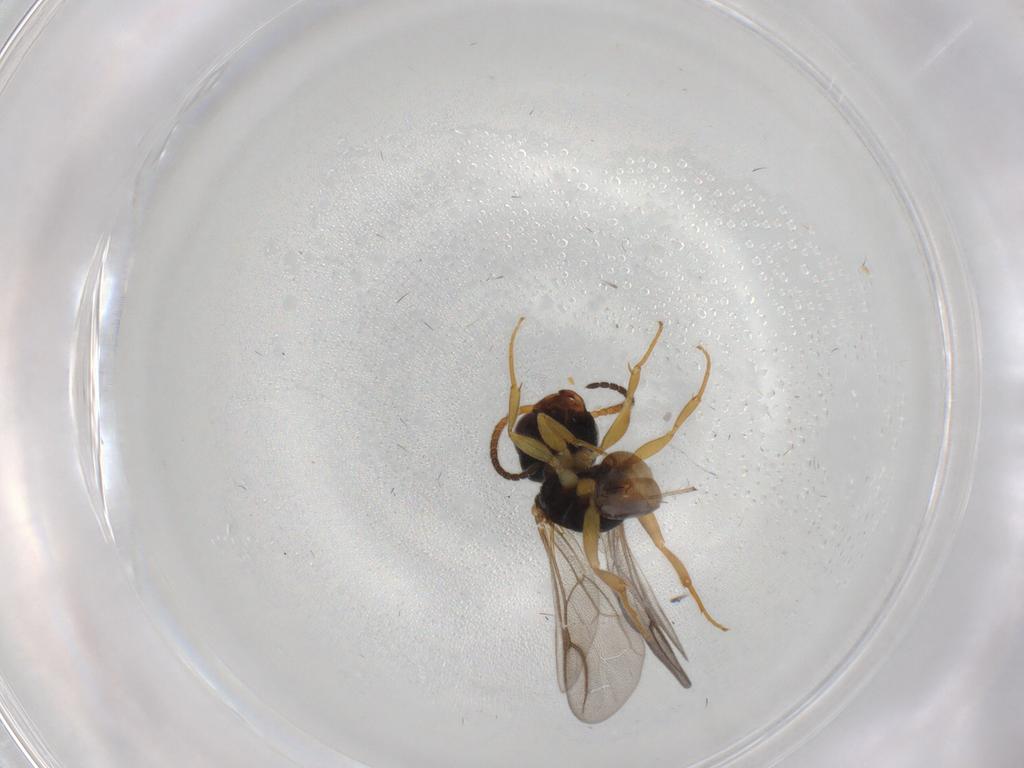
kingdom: Animalia
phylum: Arthropoda
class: Insecta
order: Hymenoptera
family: Bethylidae
